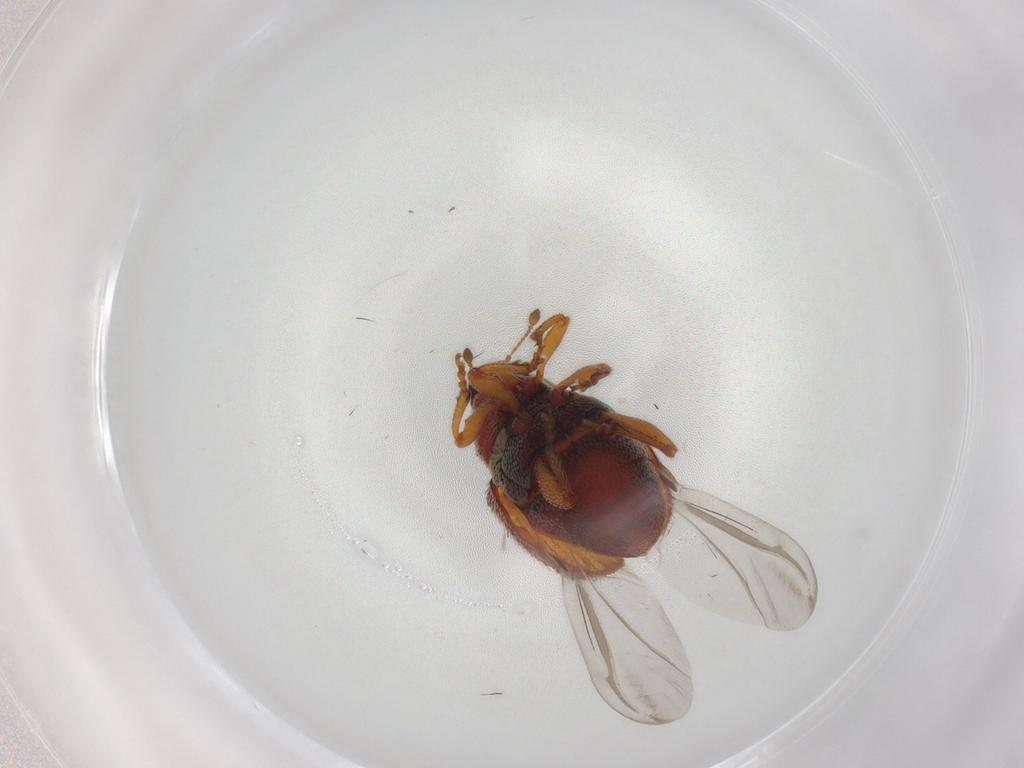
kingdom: Animalia
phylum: Arthropoda
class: Insecta
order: Coleoptera
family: Curculionidae
